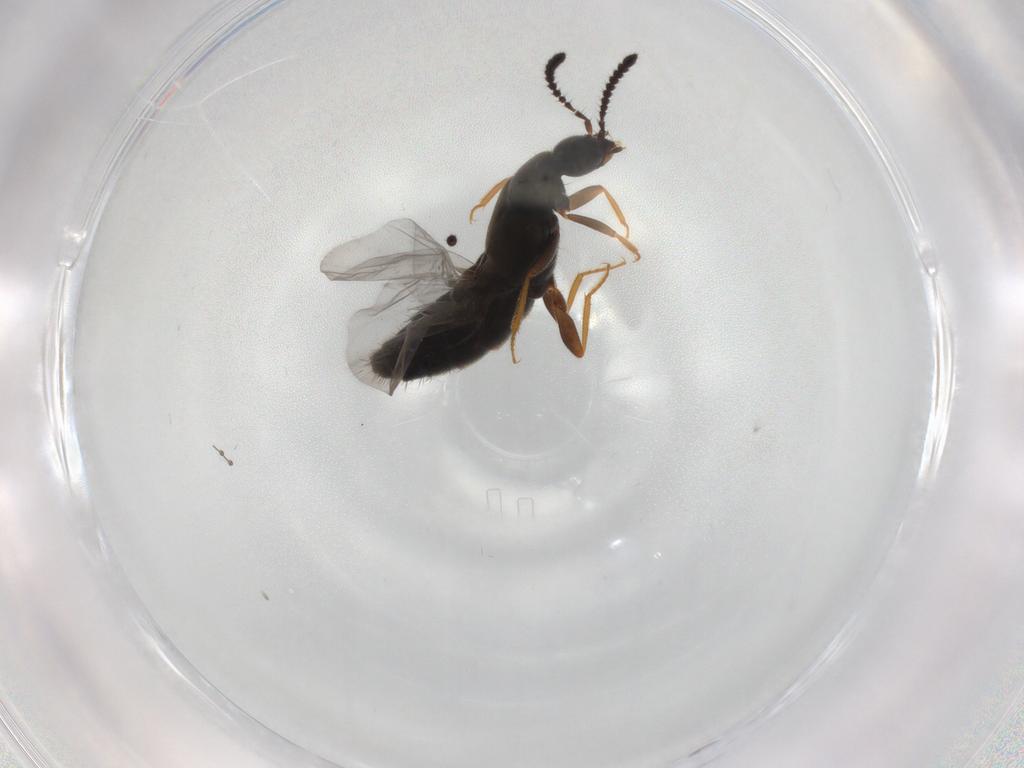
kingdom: Animalia
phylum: Arthropoda
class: Insecta
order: Coleoptera
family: Staphylinidae
